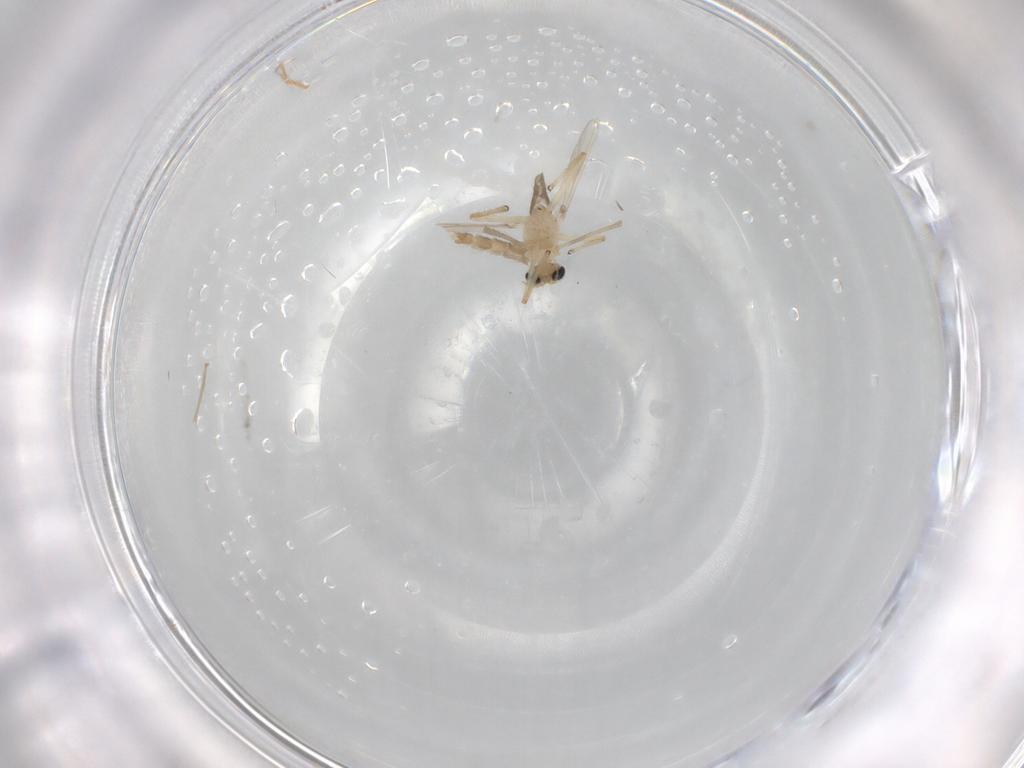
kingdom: Animalia
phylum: Arthropoda
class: Insecta
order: Diptera
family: Chironomidae
